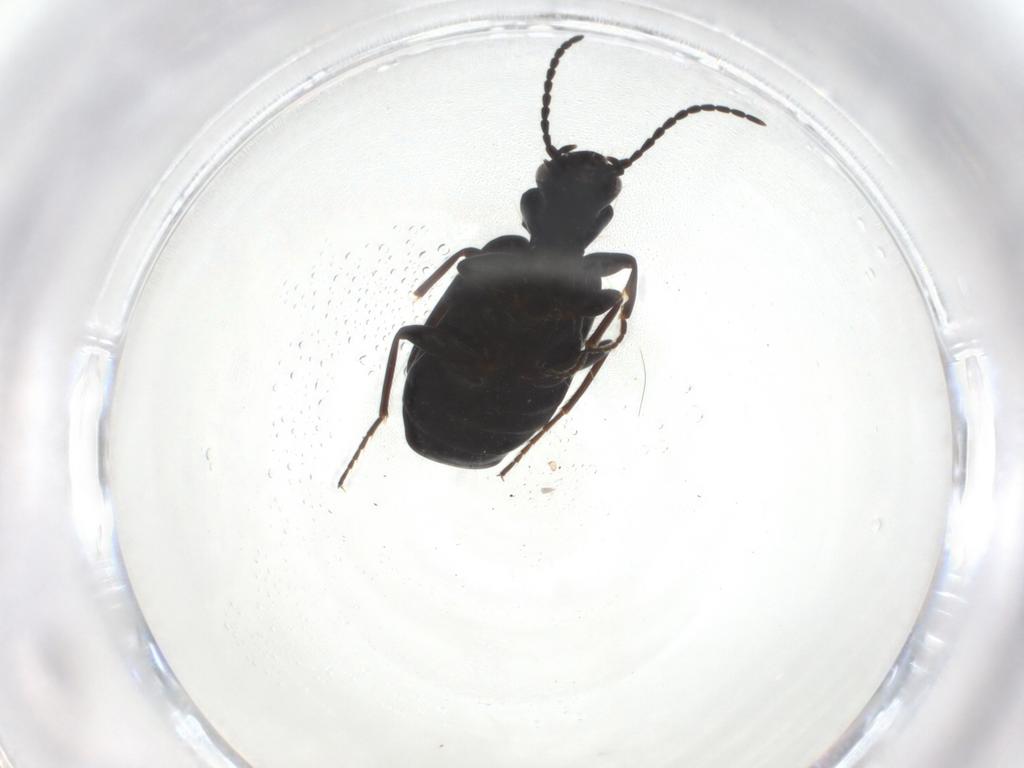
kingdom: Animalia
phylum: Arthropoda
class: Insecta
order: Coleoptera
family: Carabidae
